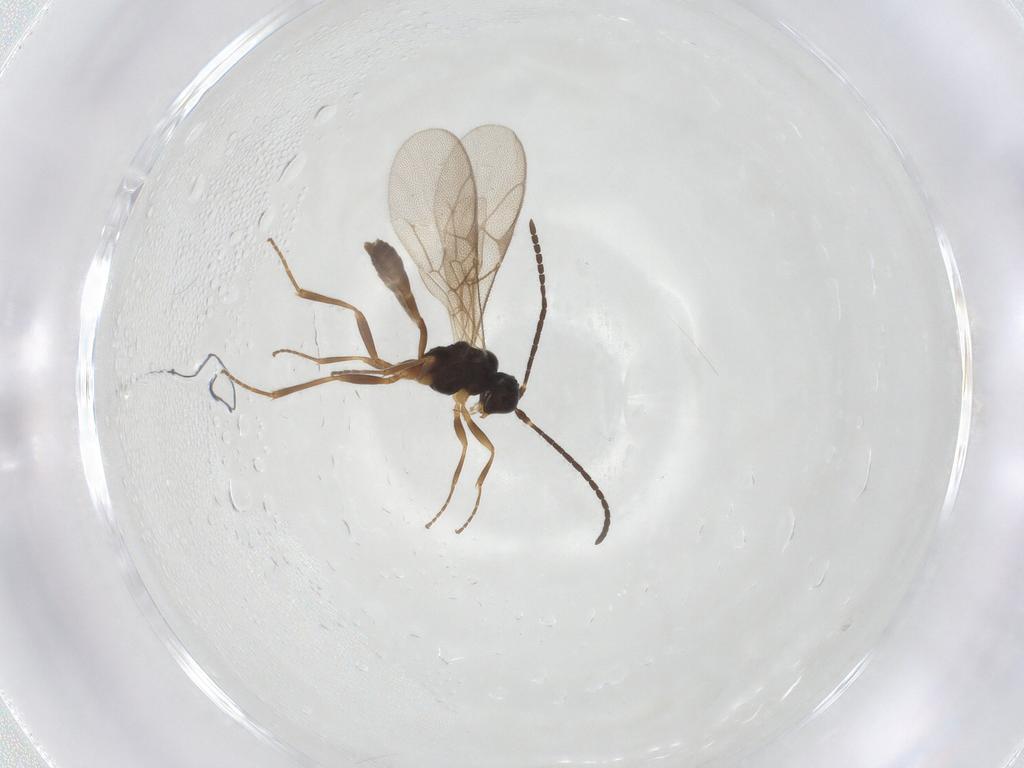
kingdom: Animalia
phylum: Arthropoda
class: Insecta
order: Hymenoptera
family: Ichneumonidae
